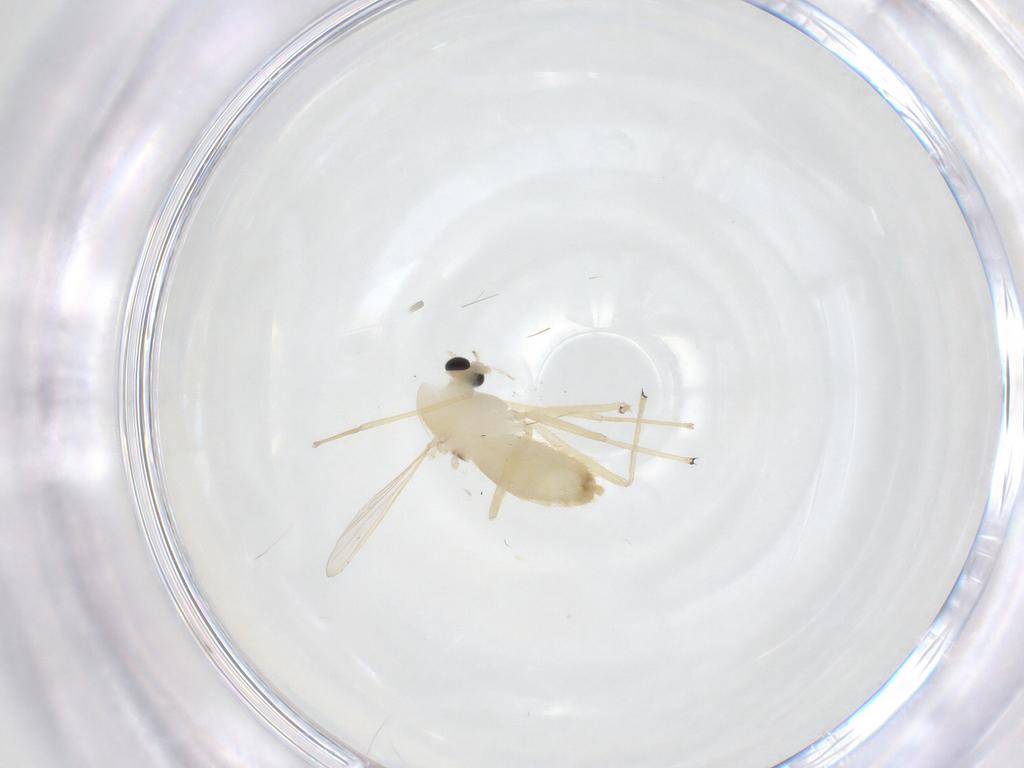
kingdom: Animalia
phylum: Arthropoda
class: Insecta
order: Diptera
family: Chironomidae
